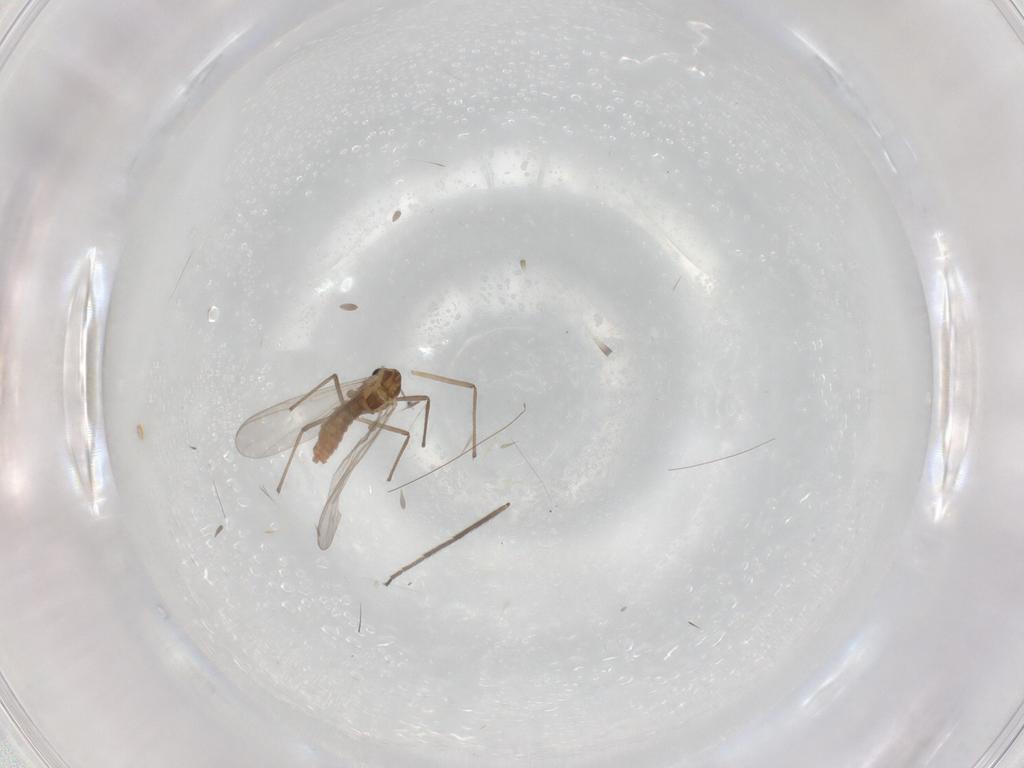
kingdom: Animalia
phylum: Arthropoda
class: Insecta
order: Diptera
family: Chironomidae
